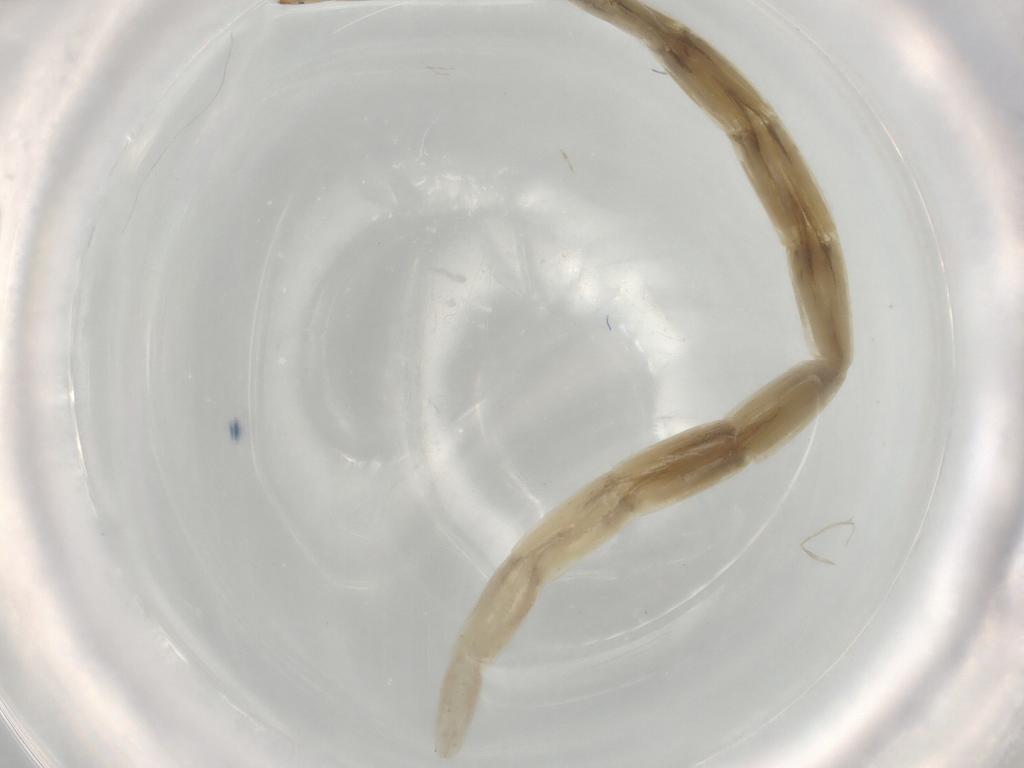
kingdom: Animalia
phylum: Arthropoda
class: Insecta
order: Diptera
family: Ceratopogonidae
